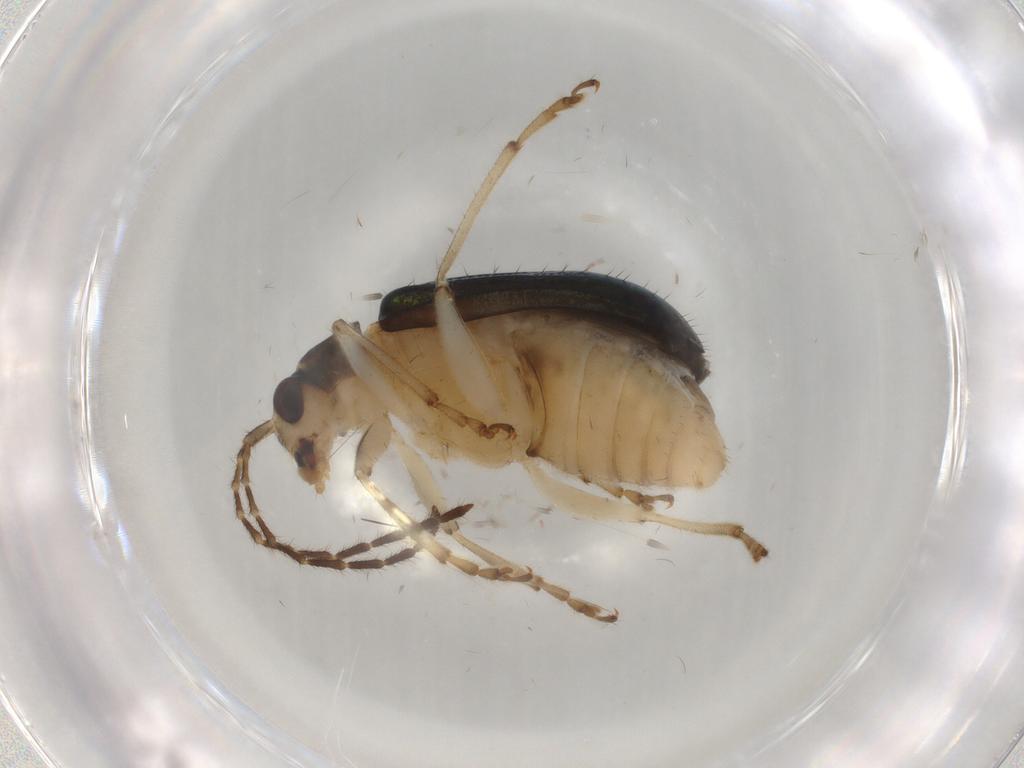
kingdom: Animalia
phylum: Arthropoda
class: Insecta
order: Coleoptera
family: Chrysomelidae
